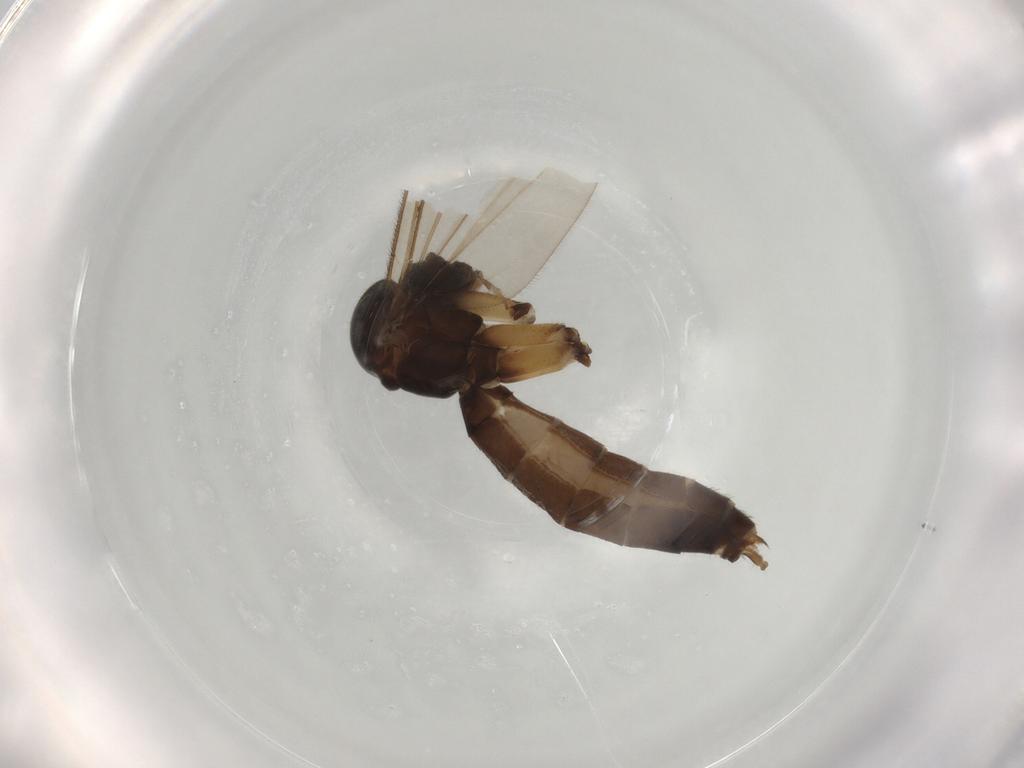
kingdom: Animalia
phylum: Arthropoda
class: Insecta
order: Diptera
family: Mycetophilidae
